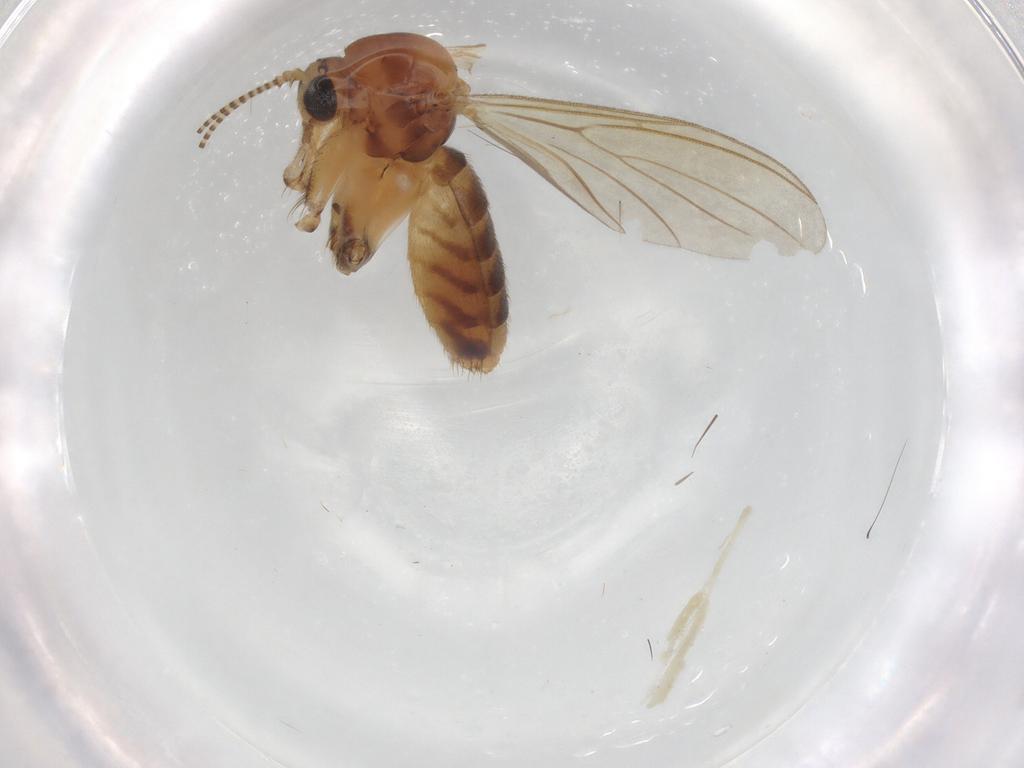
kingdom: Animalia
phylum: Arthropoda
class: Insecta
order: Diptera
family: Mycetophilidae
